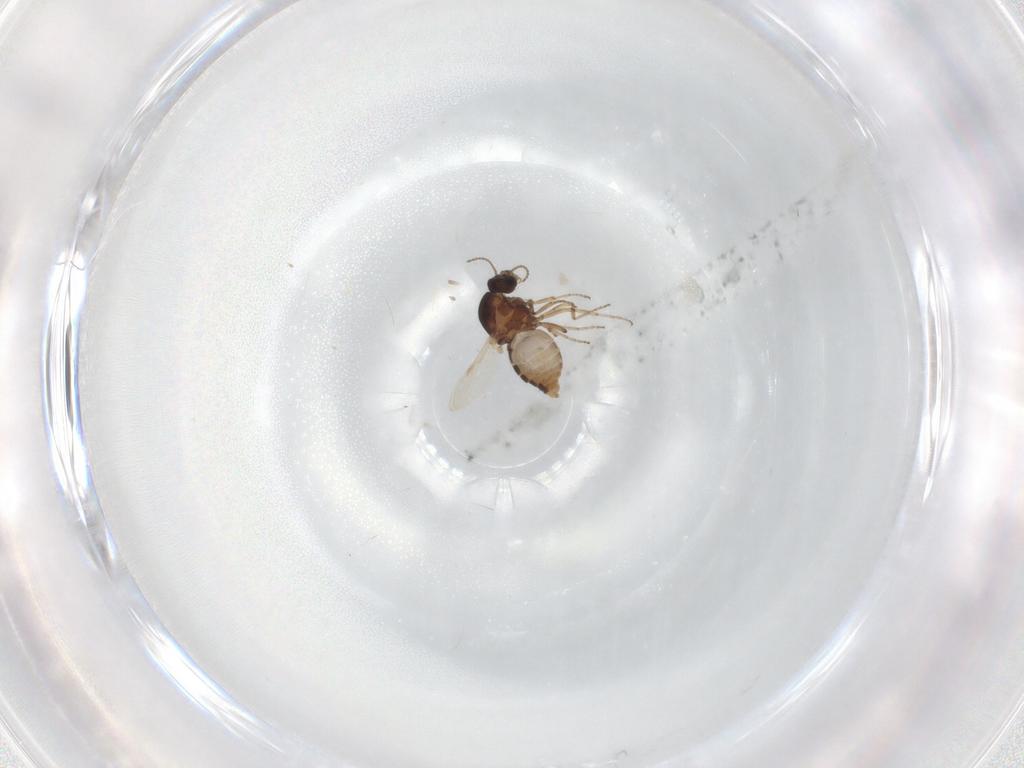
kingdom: Animalia
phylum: Arthropoda
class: Insecta
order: Diptera
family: Ceratopogonidae
